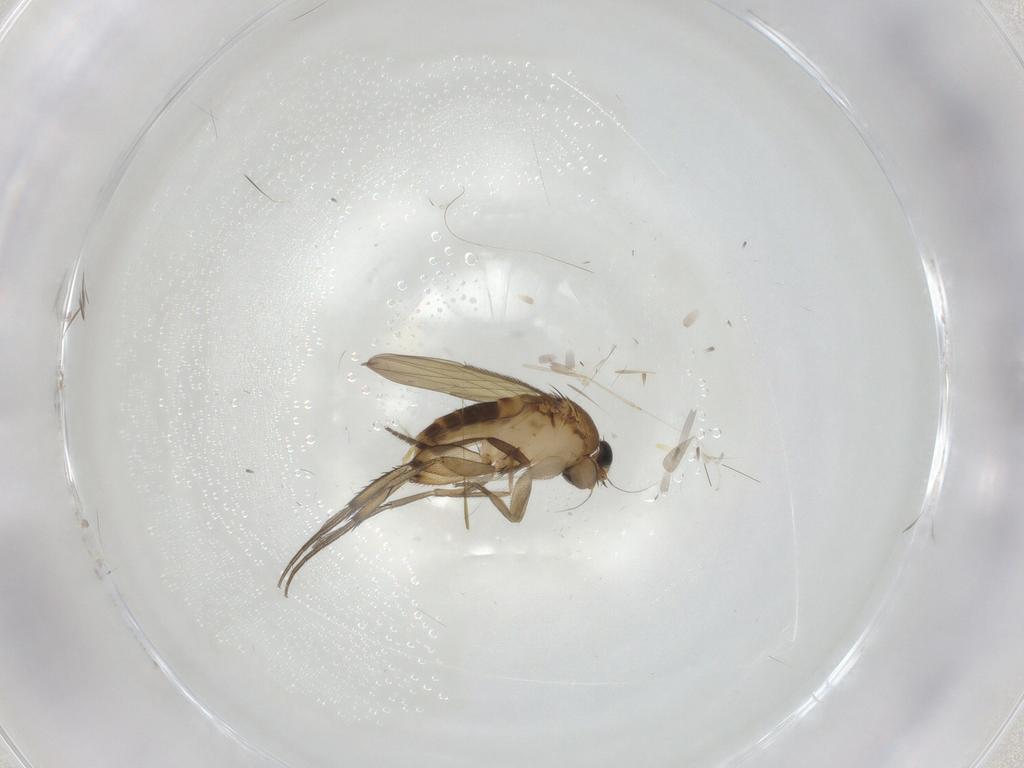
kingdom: Animalia
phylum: Arthropoda
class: Insecta
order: Diptera
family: Phoridae
